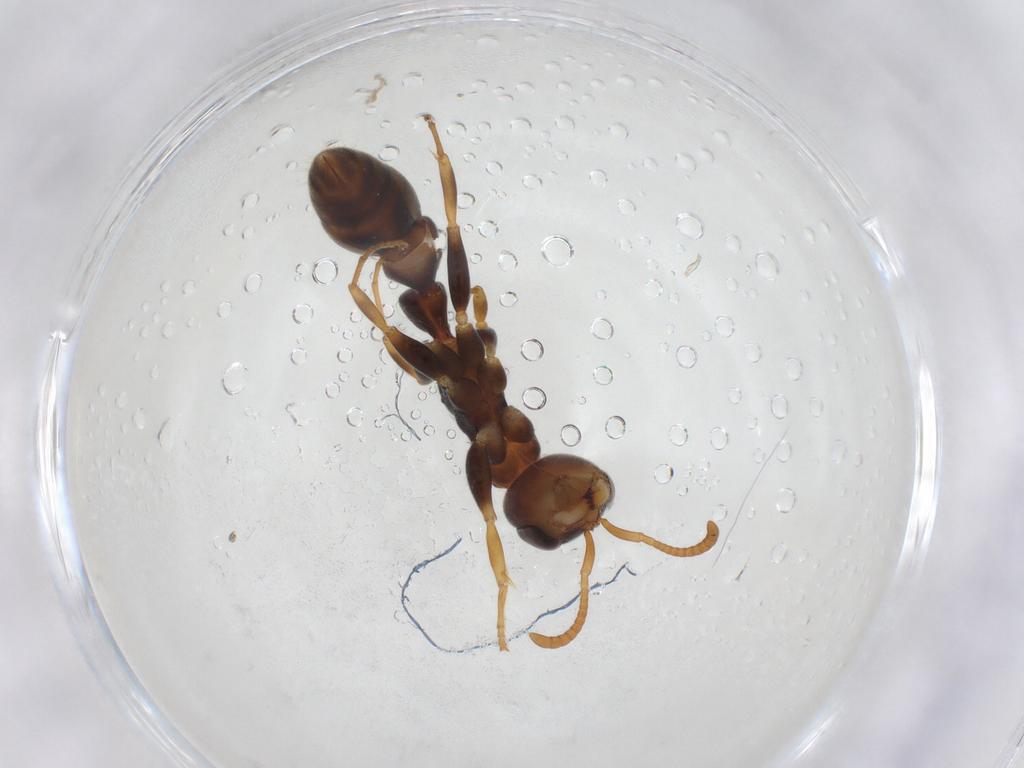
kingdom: Animalia
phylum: Arthropoda
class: Insecta
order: Hymenoptera
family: Formicidae
